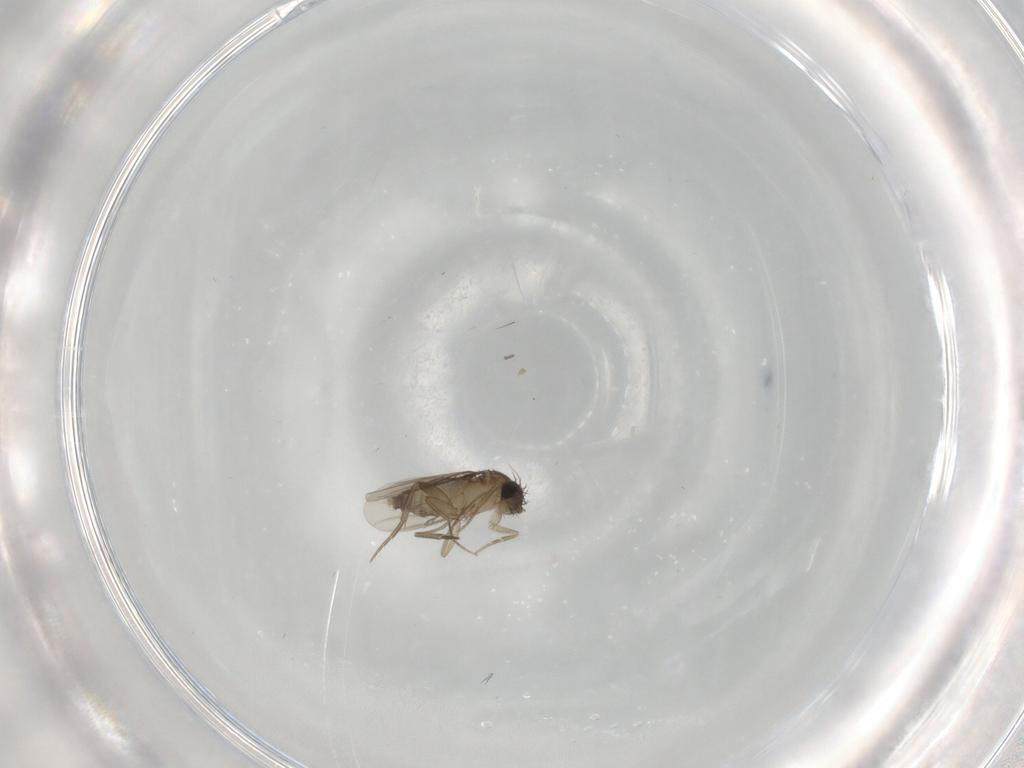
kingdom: Animalia
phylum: Arthropoda
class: Insecta
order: Diptera
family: Phoridae
